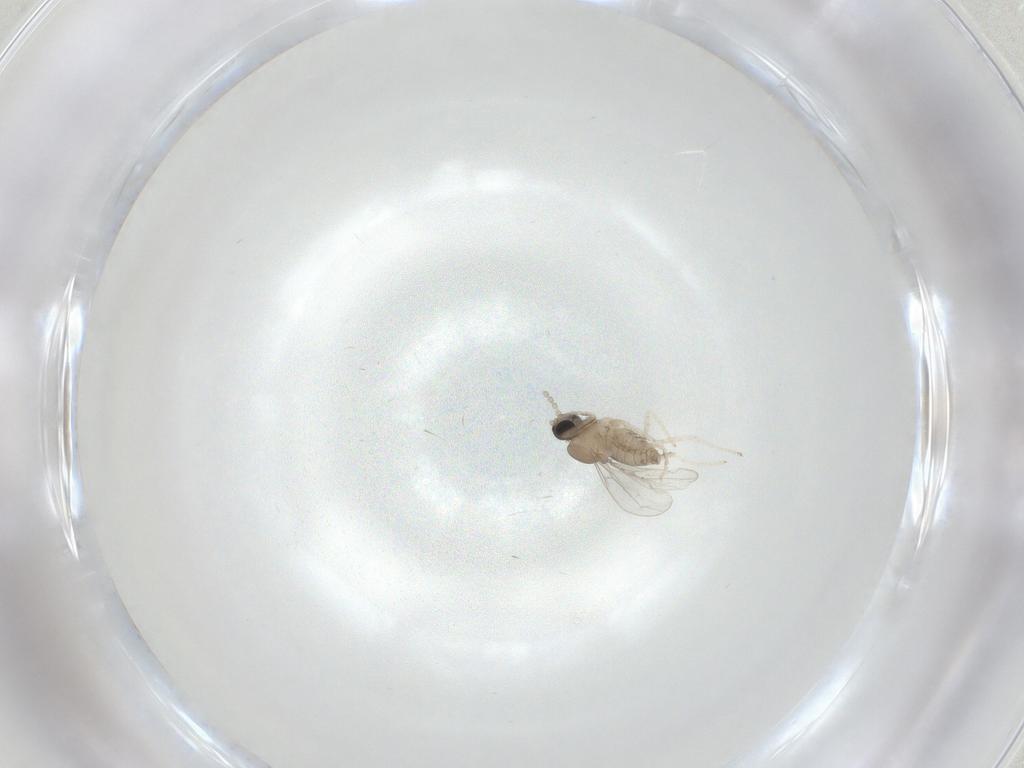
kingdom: Animalia
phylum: Arthropoda
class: Insecta
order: Diptera
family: Cecidomyiidae
